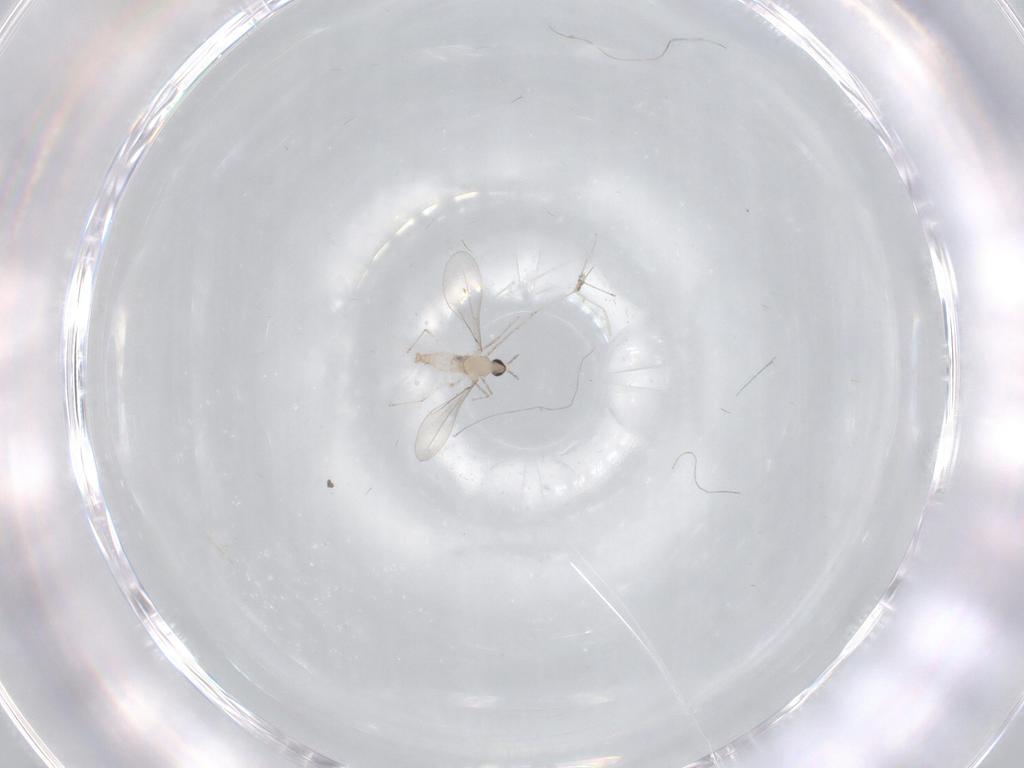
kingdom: Animalia
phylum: Arthropoda
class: Insecta
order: Diptera
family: Cecidomyiidae
